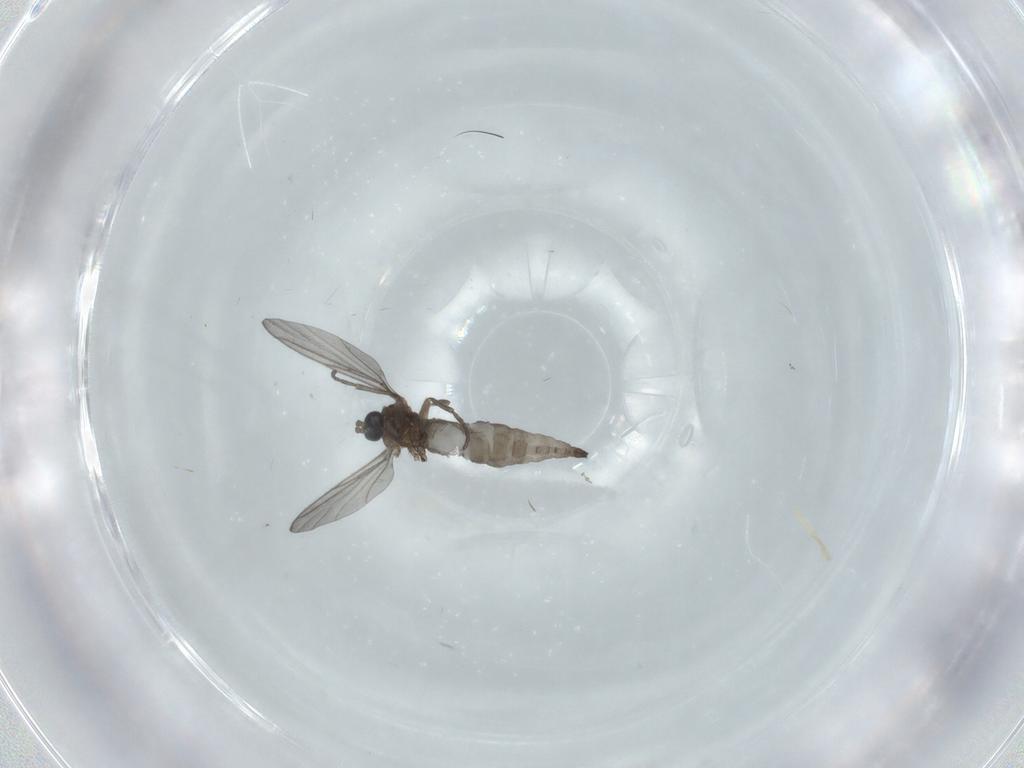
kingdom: Animalia
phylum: Arthropoda
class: Insecta
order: Diptera
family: Sciaridae
